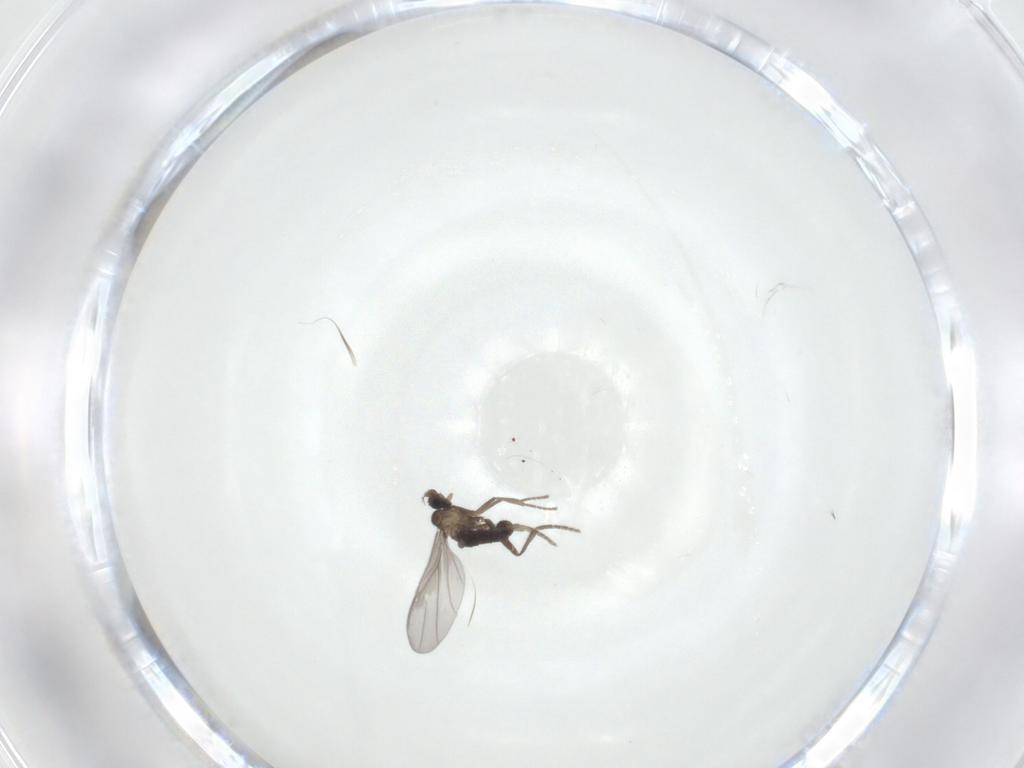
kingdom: Animalia
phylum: Arthropoda
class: Insecta
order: Diptera
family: Phoridae
